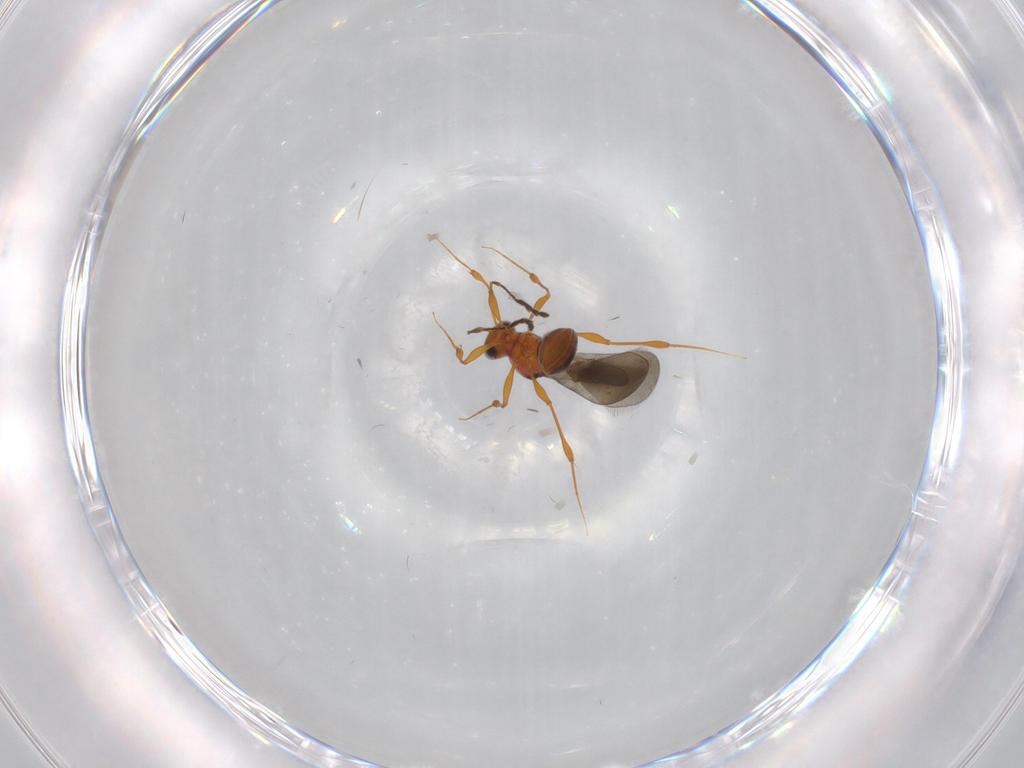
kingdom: Animalia
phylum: Arthropoda
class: Insecta
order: Hymenoptera
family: Platygastridae
